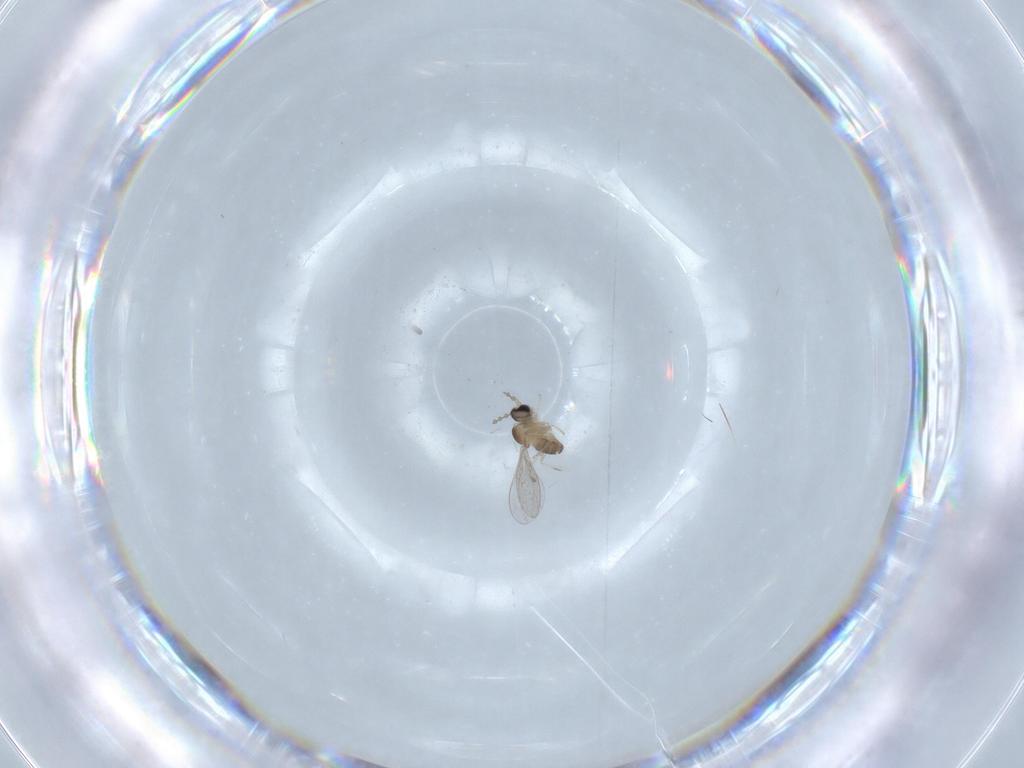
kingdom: Animalia
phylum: Arthropoda
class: Insecta
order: Diptera
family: Cecidomyiidae
